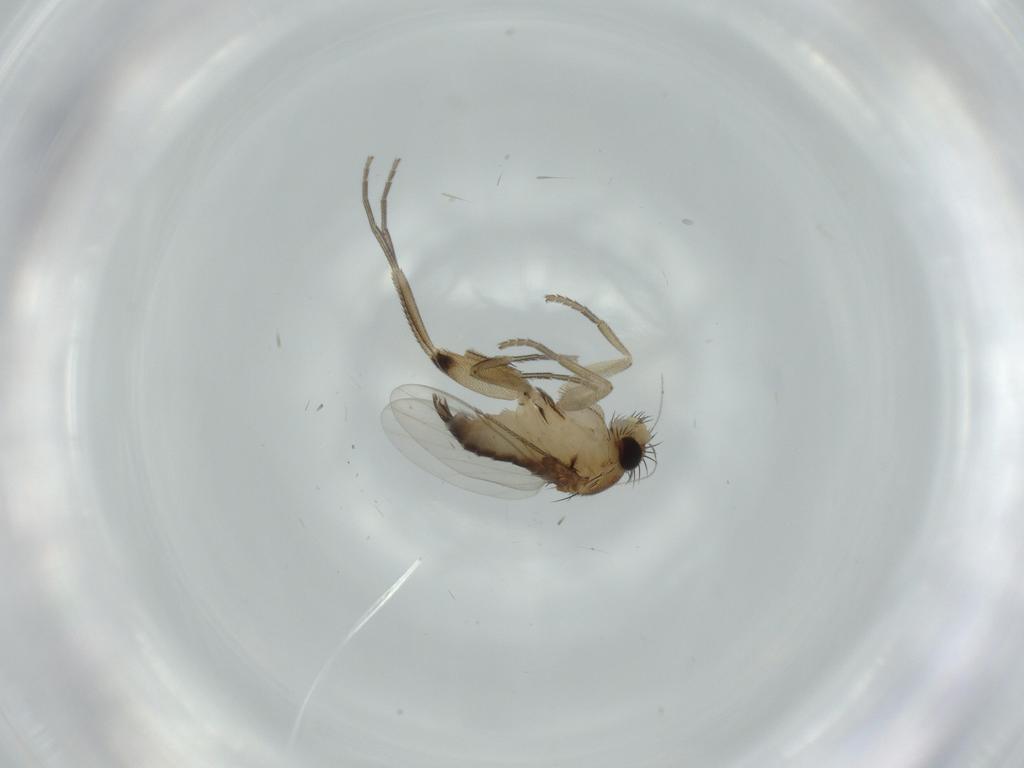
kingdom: Animalia
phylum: Arthropoda
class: Insecta
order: Diptera
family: Phoridae
